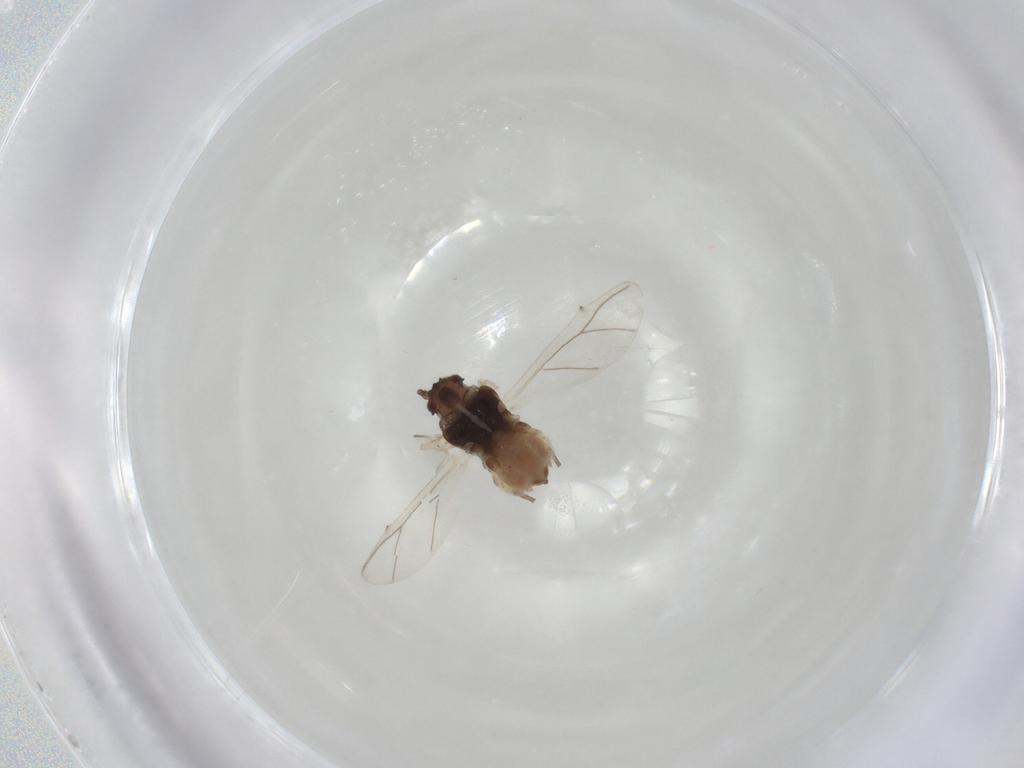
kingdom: Animalia
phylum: Arthropoda
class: Insecta
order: Hemiptera
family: Aphididae
